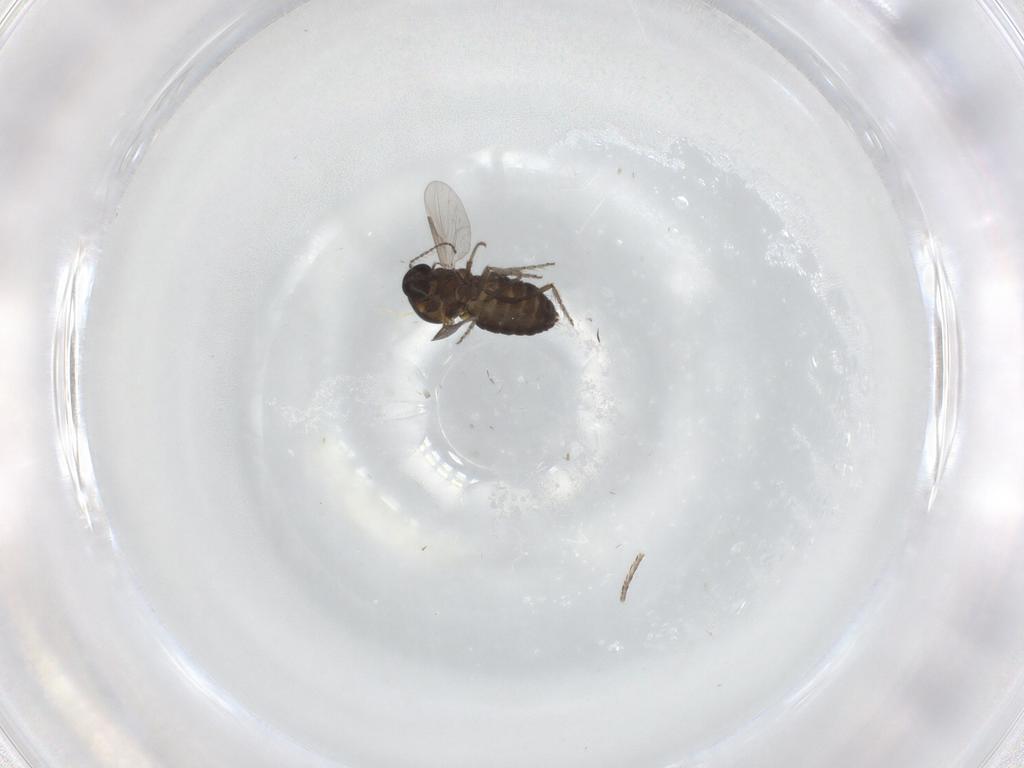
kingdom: Animalia
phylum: Arthropoda
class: Insecta
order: Diptera
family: Ceratopogonidae
